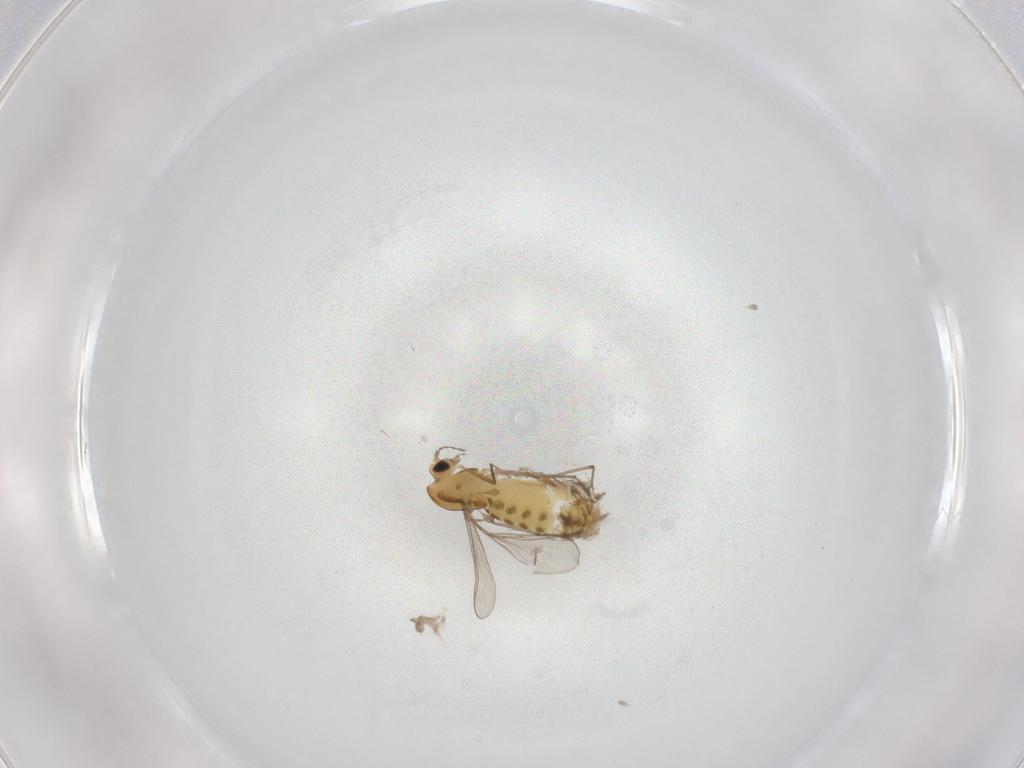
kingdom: Animalia
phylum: Arthropoda
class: Insecta
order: Diptera
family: Chironomidae
